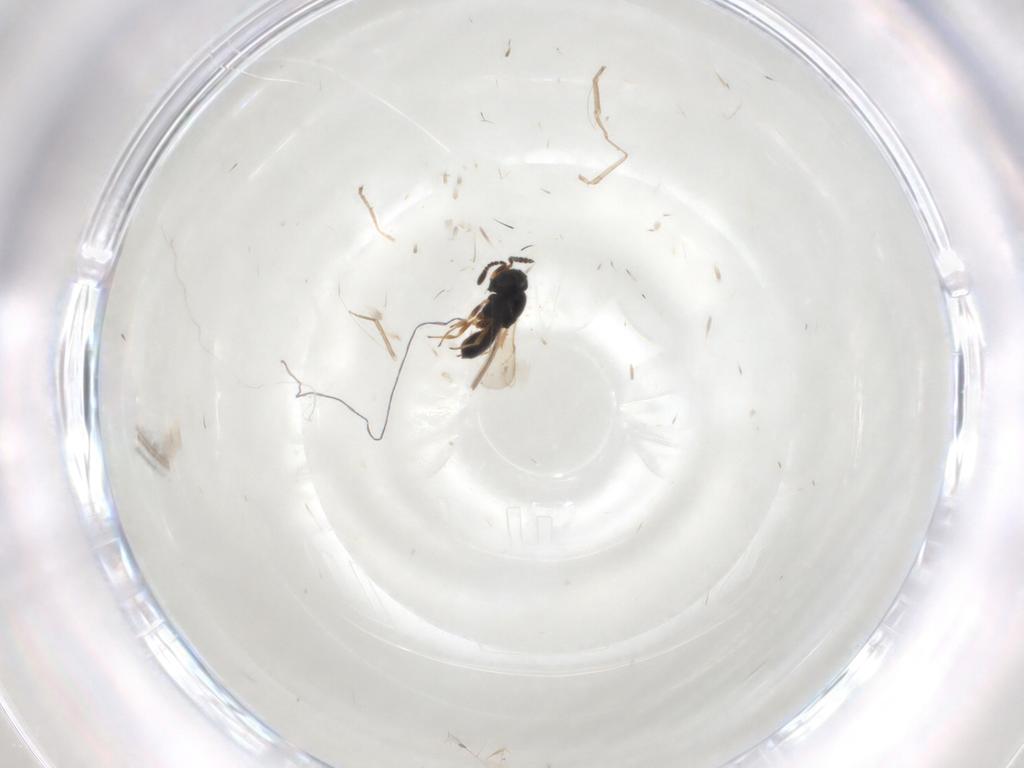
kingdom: Animalia
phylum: Arthropoda
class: Insecta
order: Hymenoptera
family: Scelionidae
